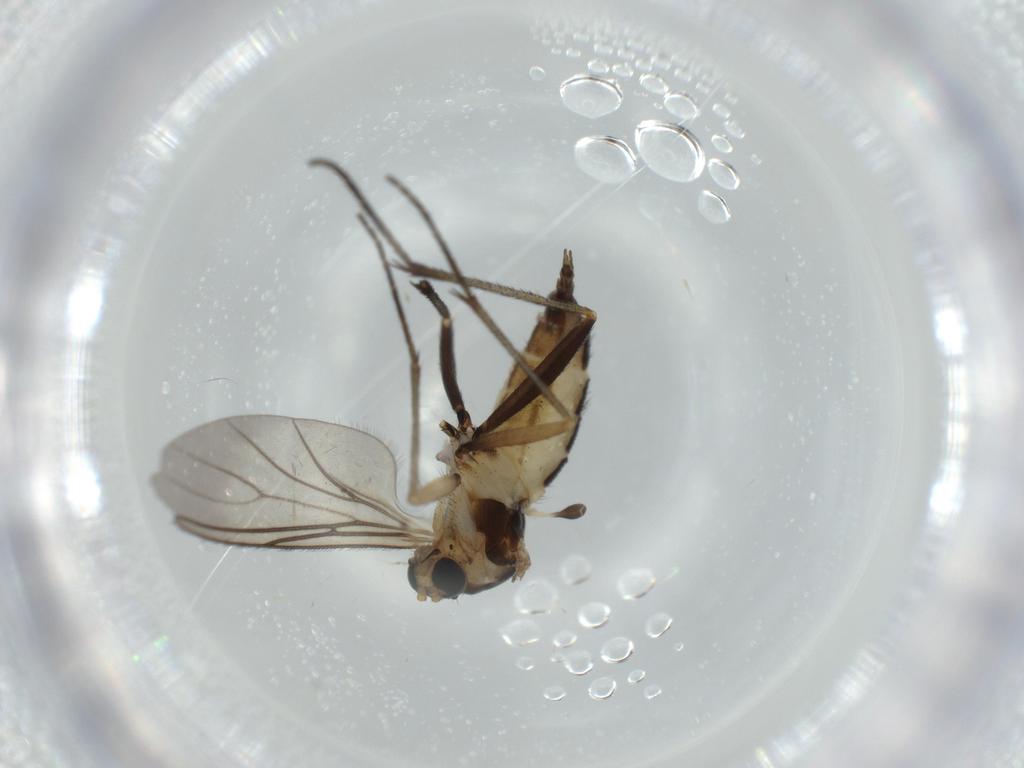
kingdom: Animalia
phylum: Arthropoda
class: Insecta
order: Diptera
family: Sciaridae
